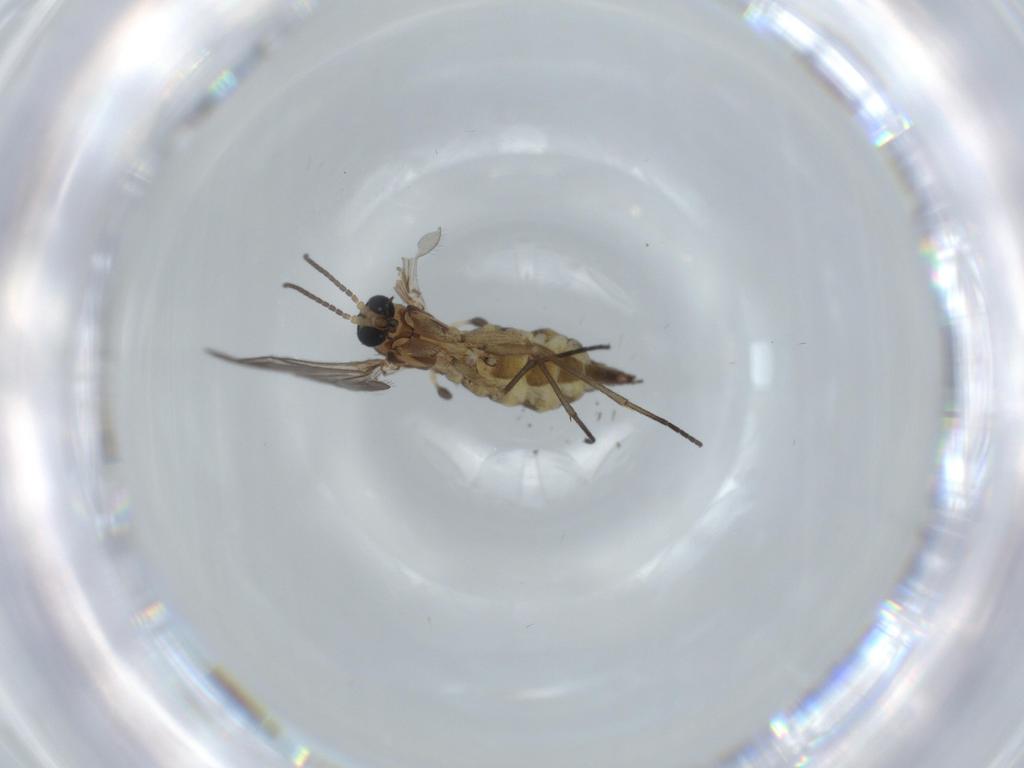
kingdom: Animalia
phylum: Arthropoda
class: Insecta
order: Diptera
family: Sciaridae
